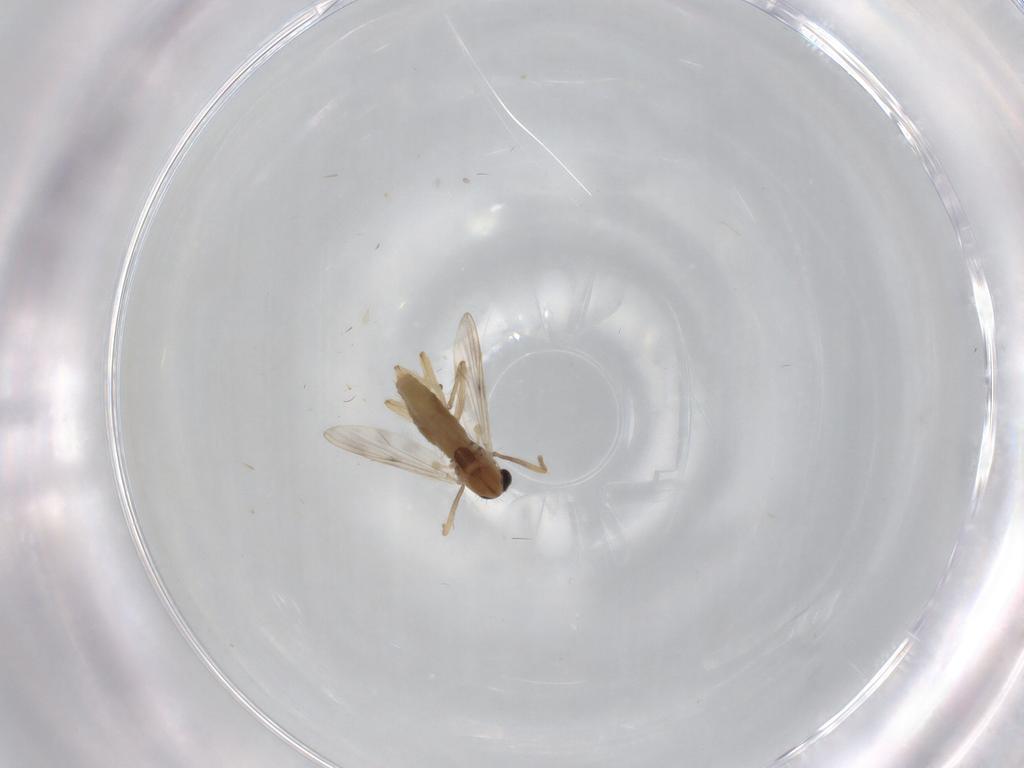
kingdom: Animalia
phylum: Arthropoda
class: Insecta
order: Diptera
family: Chironomidae
